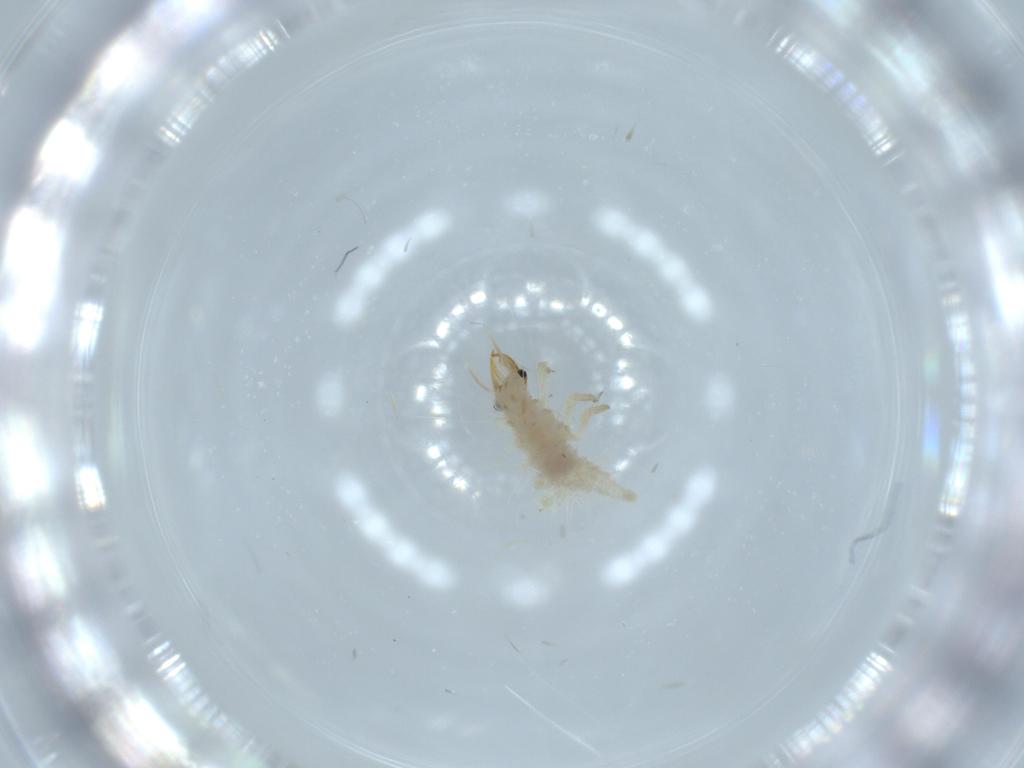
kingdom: Animalia
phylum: Arthropoda
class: Insecta
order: Neuroptera
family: Chrysopidae
